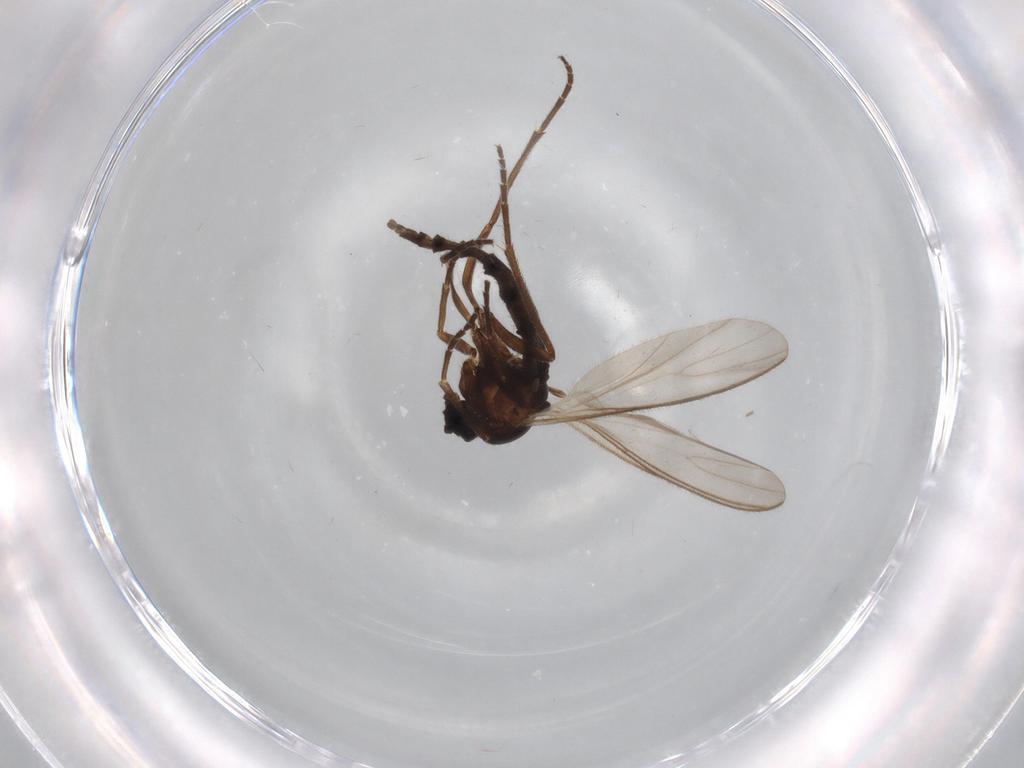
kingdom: Animalia
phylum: Arthropoda
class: Insecta
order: Diptera
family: Sciaridae
